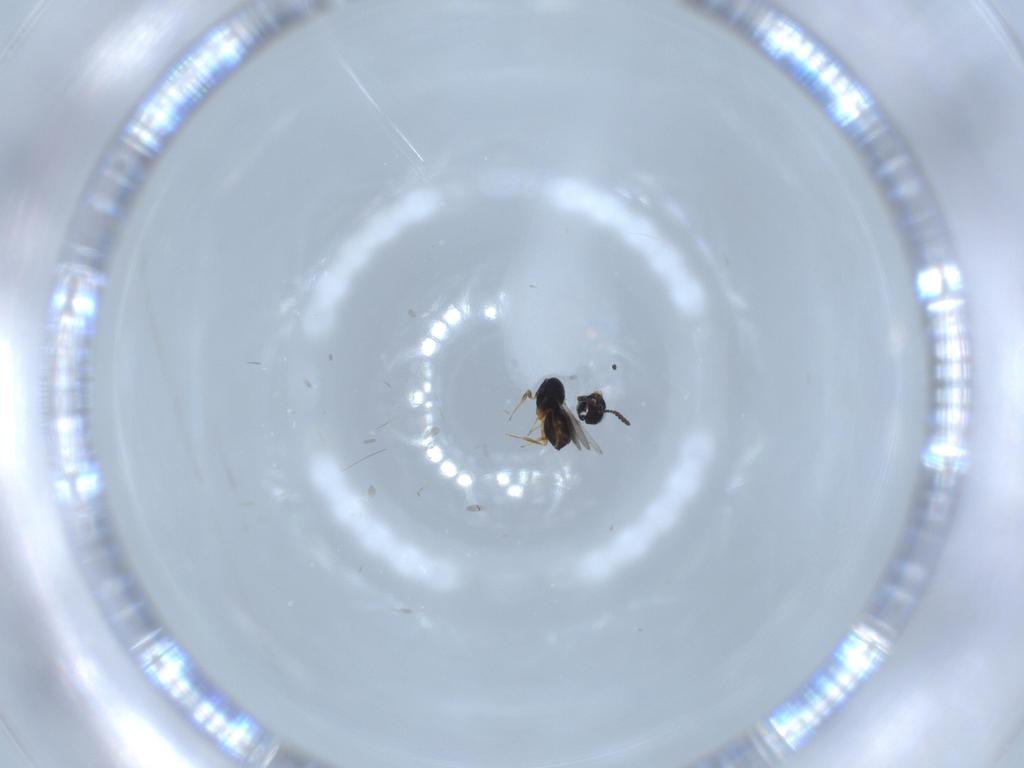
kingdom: Animalia
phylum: Arthropoda
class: Insecta
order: Hymenoptera
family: Scelionidae
